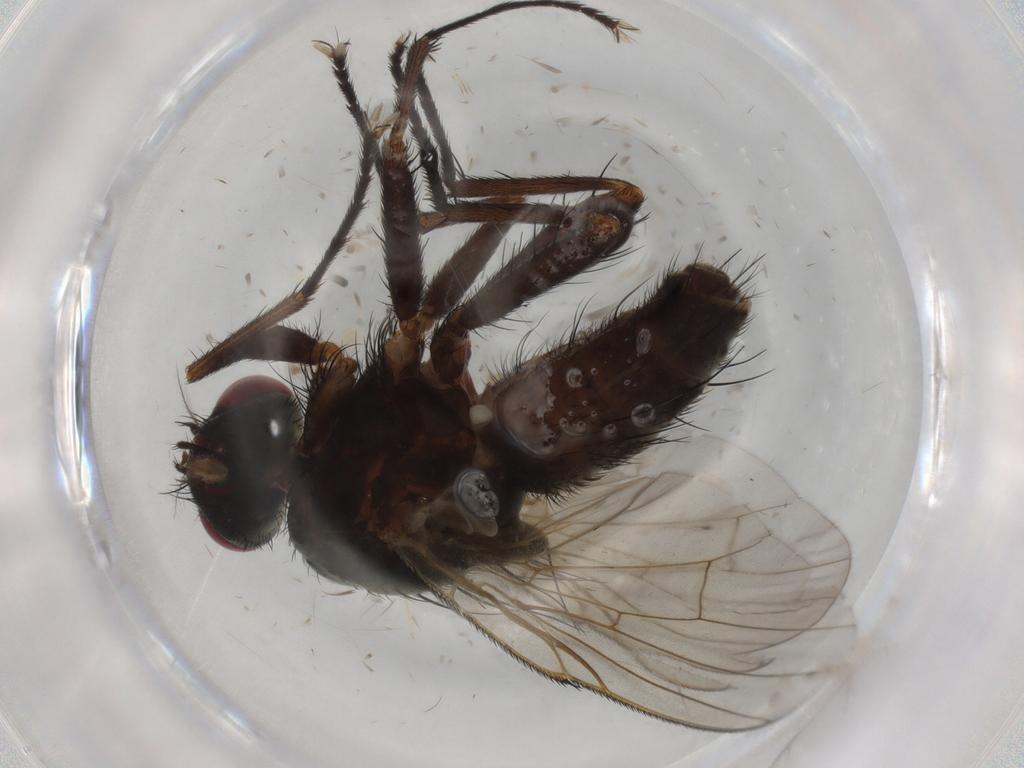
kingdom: Animalia
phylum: Arthropoda
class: Insecta
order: Diptera
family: Muscidae
